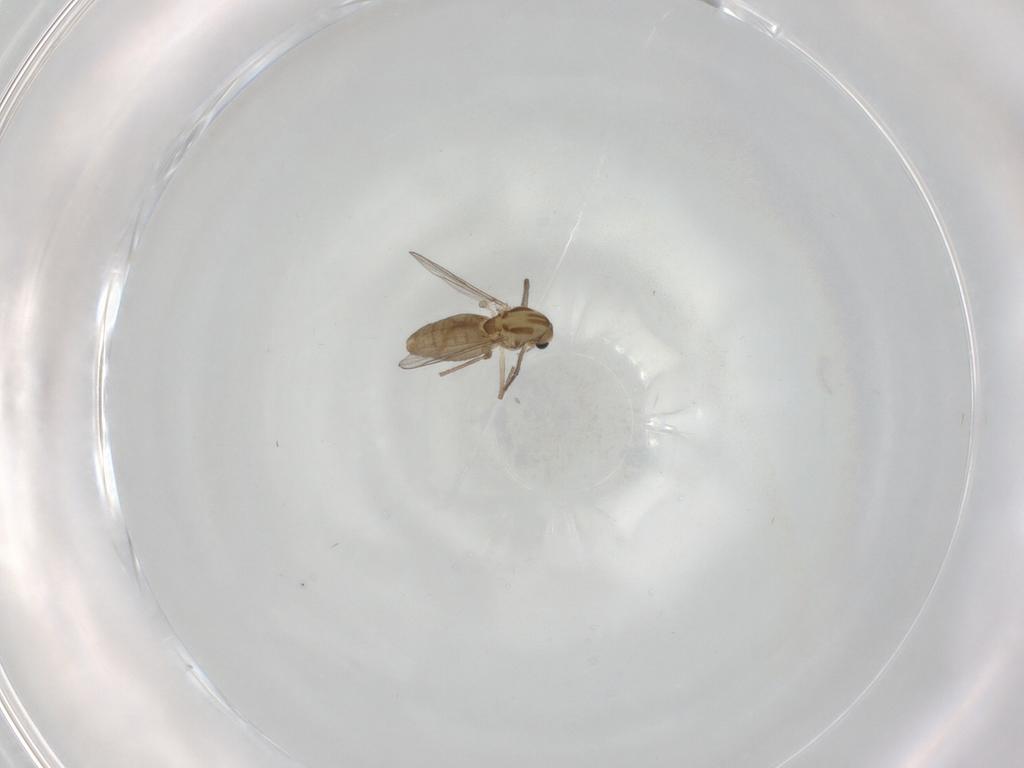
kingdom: Animalia
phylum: Arthropoda
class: Insecta
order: Diptera
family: Chironomidae
